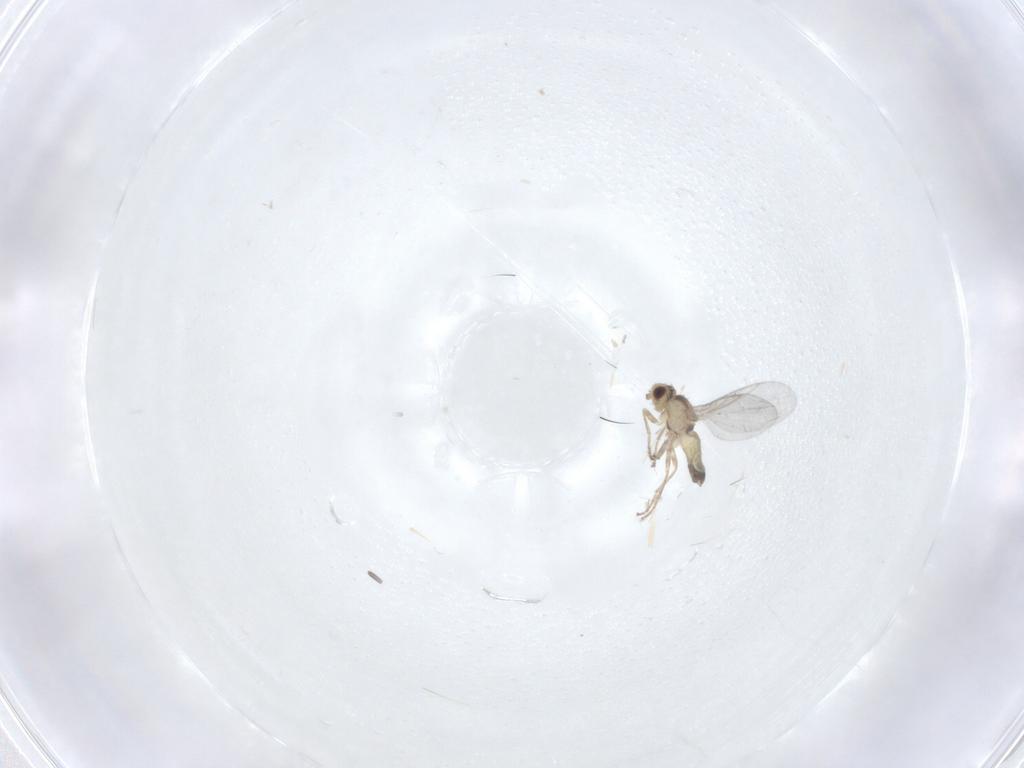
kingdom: Animalia
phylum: Arthropoda
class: Insecta
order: Diptera
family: Agromyzidae
